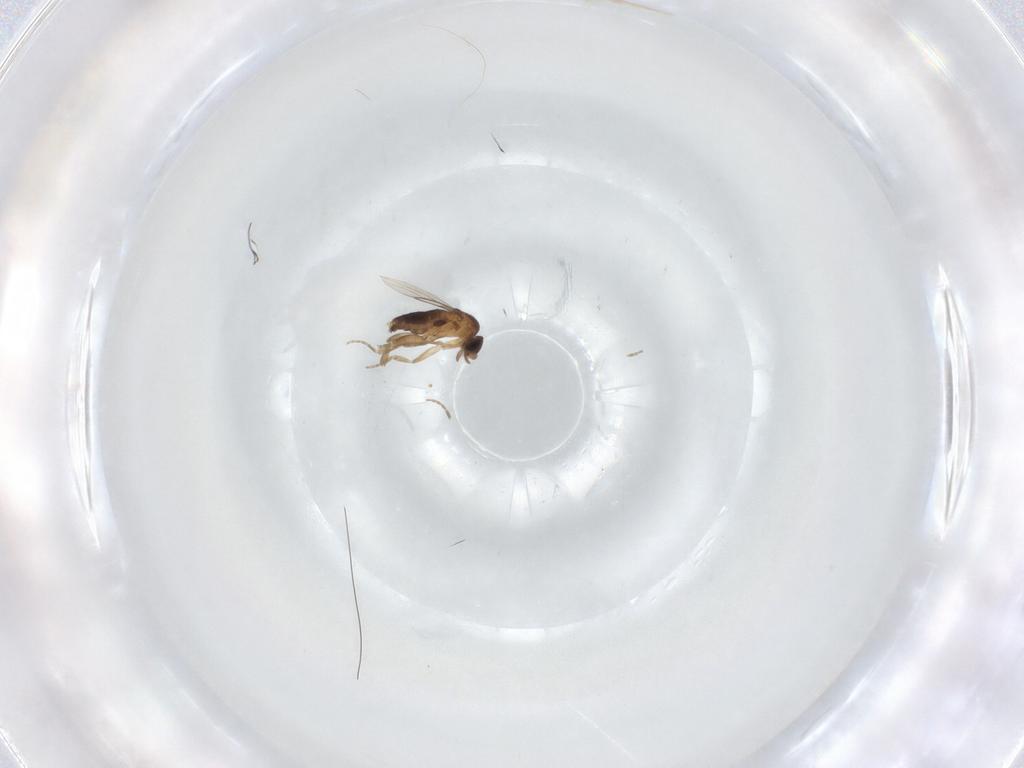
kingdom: Animalia
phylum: Arthropoda
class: Insecta
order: Diptera
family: Phoridae
